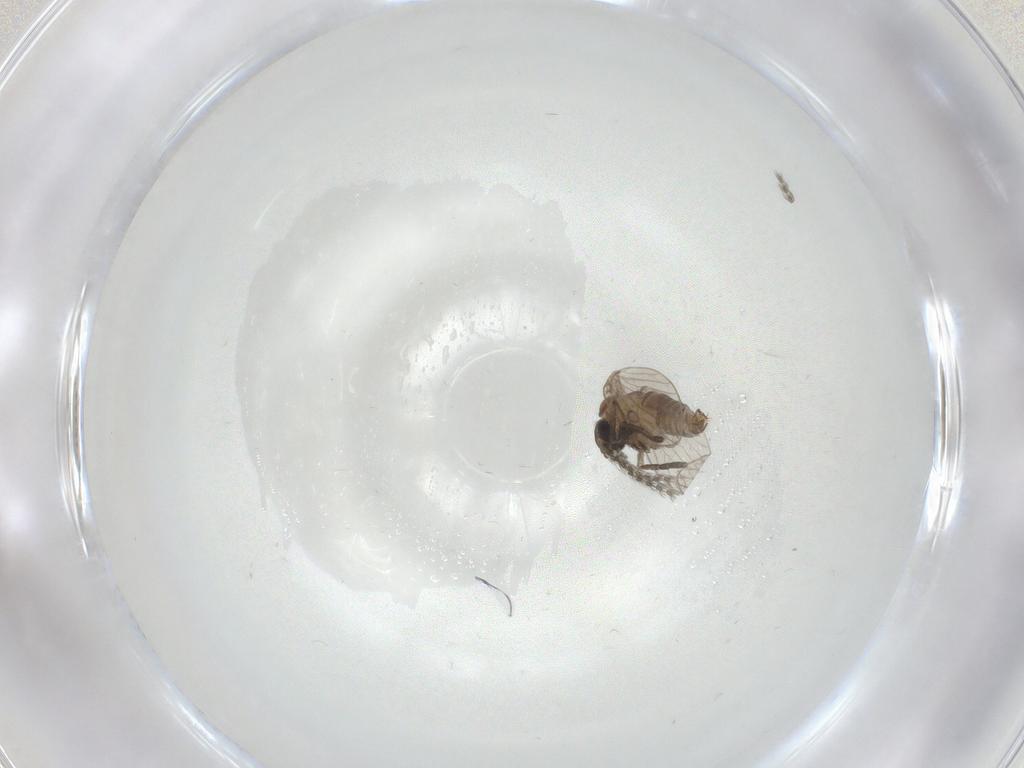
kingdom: Animalia
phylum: Arthropoda
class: Insecta
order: Diptera
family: Psychodidae
